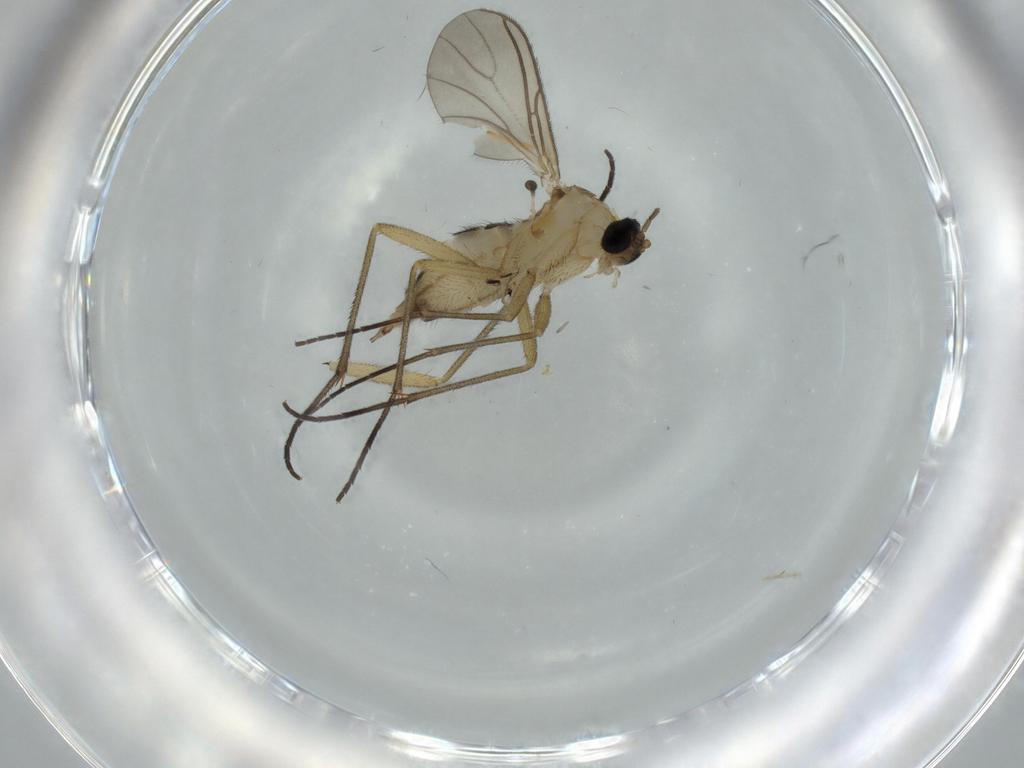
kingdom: Animalia
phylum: Arthropoda
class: Insecta
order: Diptera
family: Sciaridae
